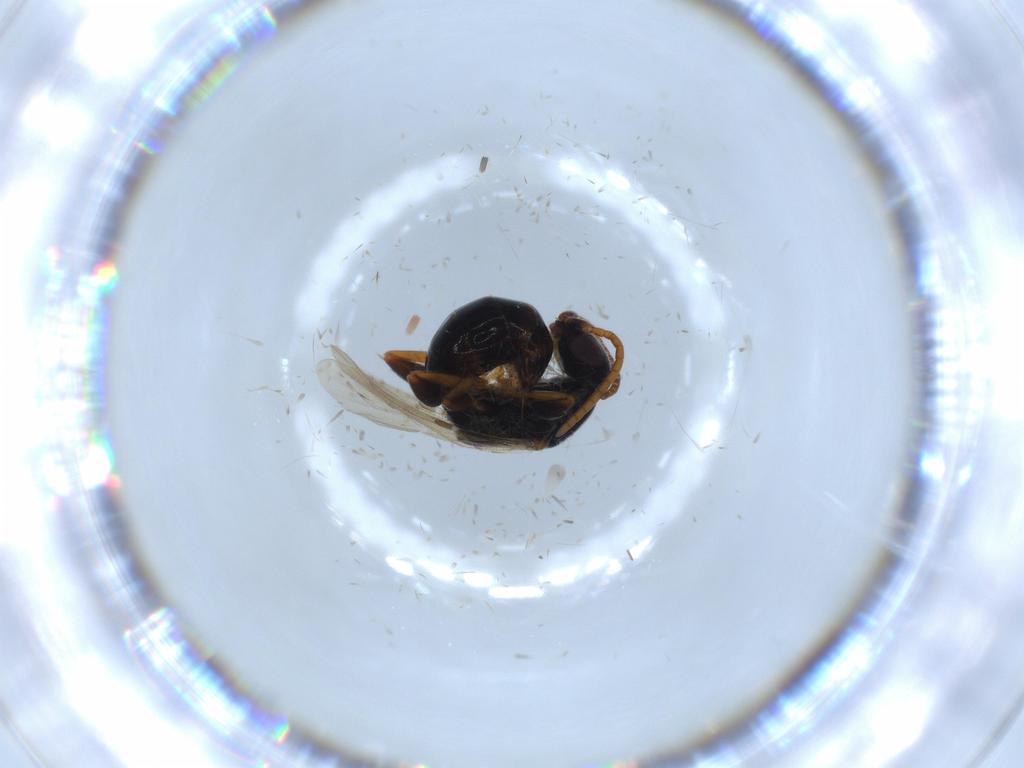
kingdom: Animalia
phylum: Arthropoda
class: Insecta
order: Hymenoptera
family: Bethylidae
